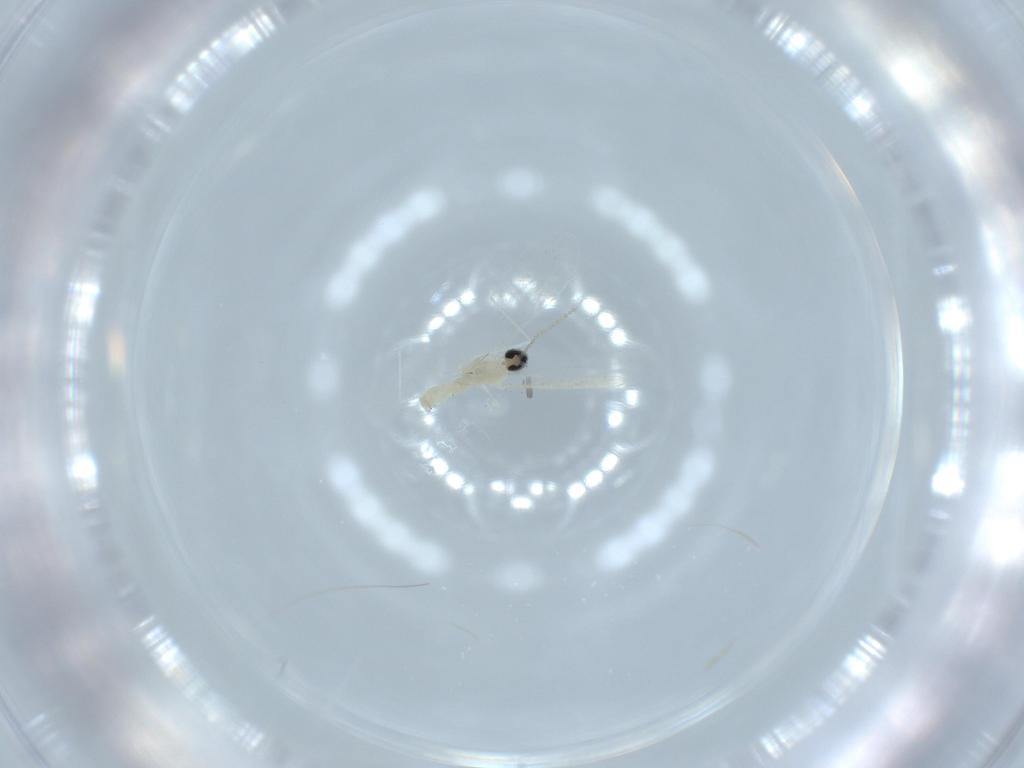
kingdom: Animalia
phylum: Arthropoda
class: Insecta
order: Diptera
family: Cecidomyiidae
